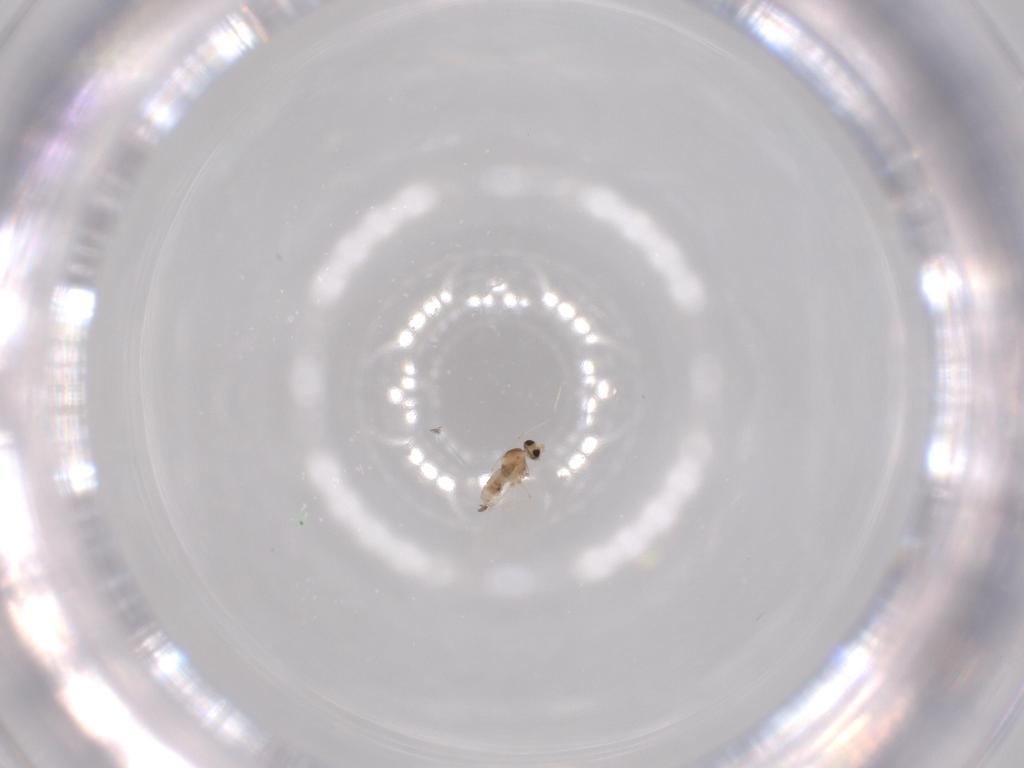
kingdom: Animalia
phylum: Arthropoda
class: Insecta
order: Diptera
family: Cecidomyiidae
